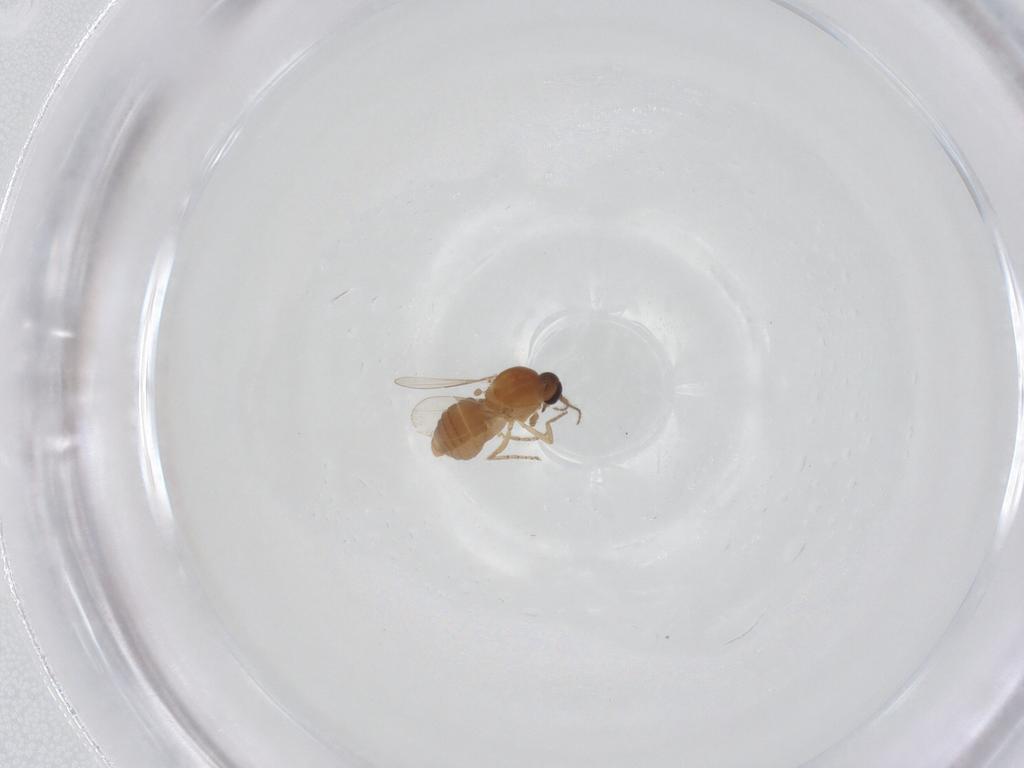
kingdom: Animalia
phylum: Arthropoda
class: Insecta
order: Diptera
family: Ceratopogonidae
